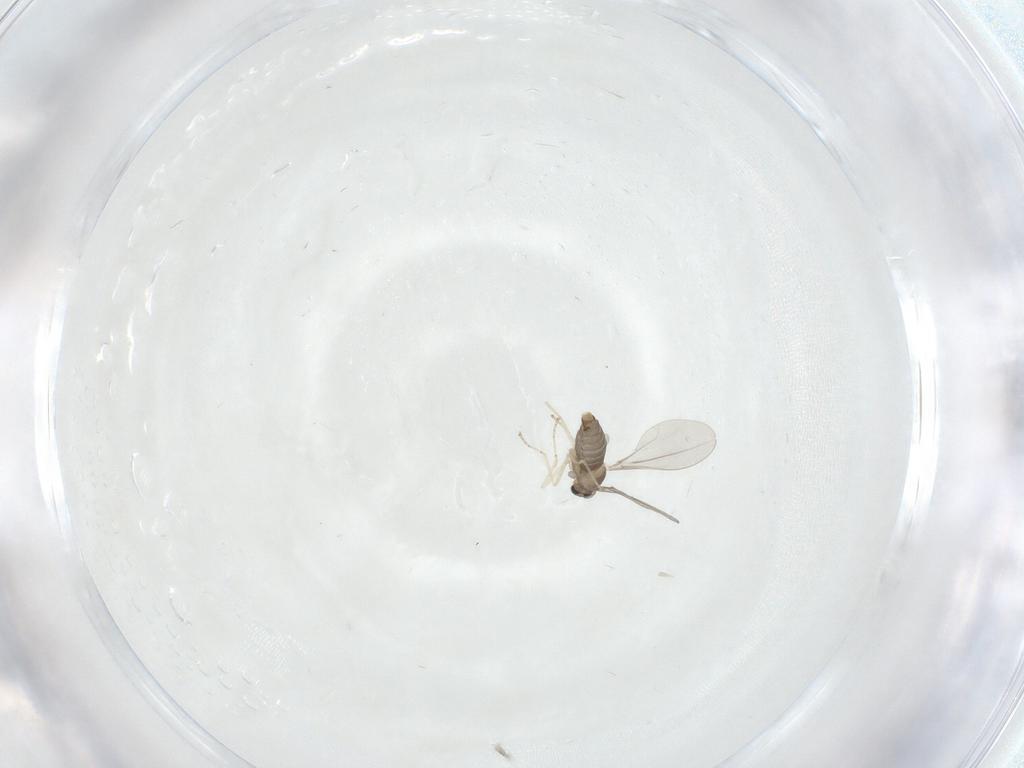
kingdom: Animalia
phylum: Arthropoda
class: Insecta
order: Diptera
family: Cecidomyiidae
